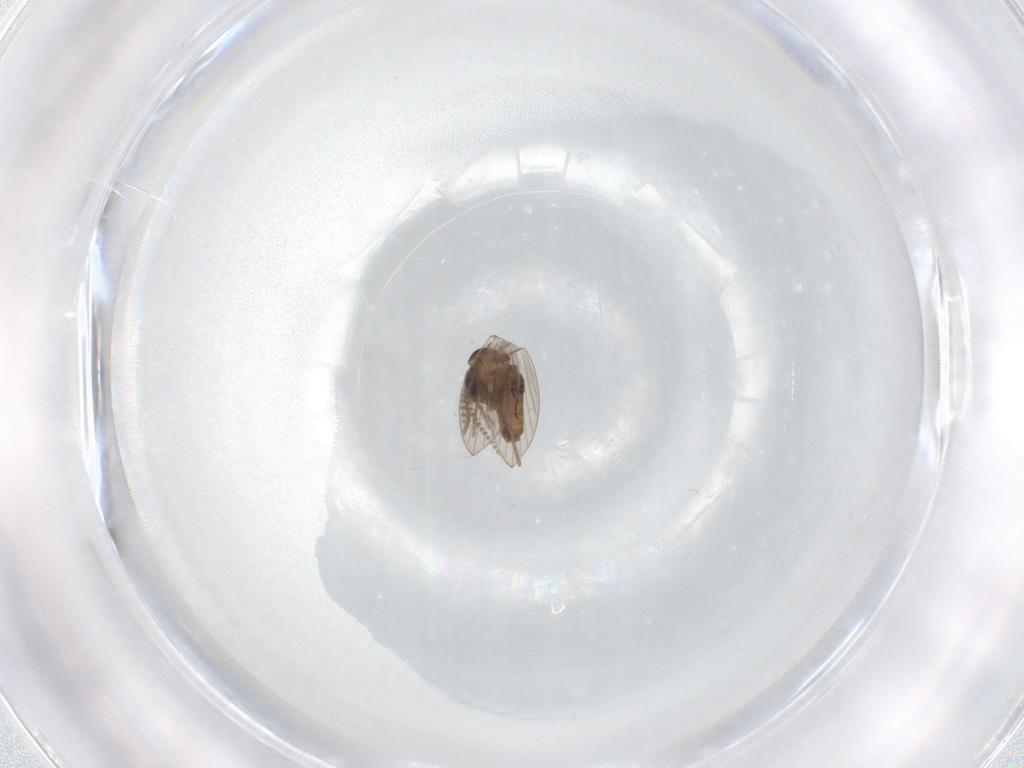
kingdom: Animalia
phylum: Arthropoda
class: Insecta
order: Diptera
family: Psychodidae
